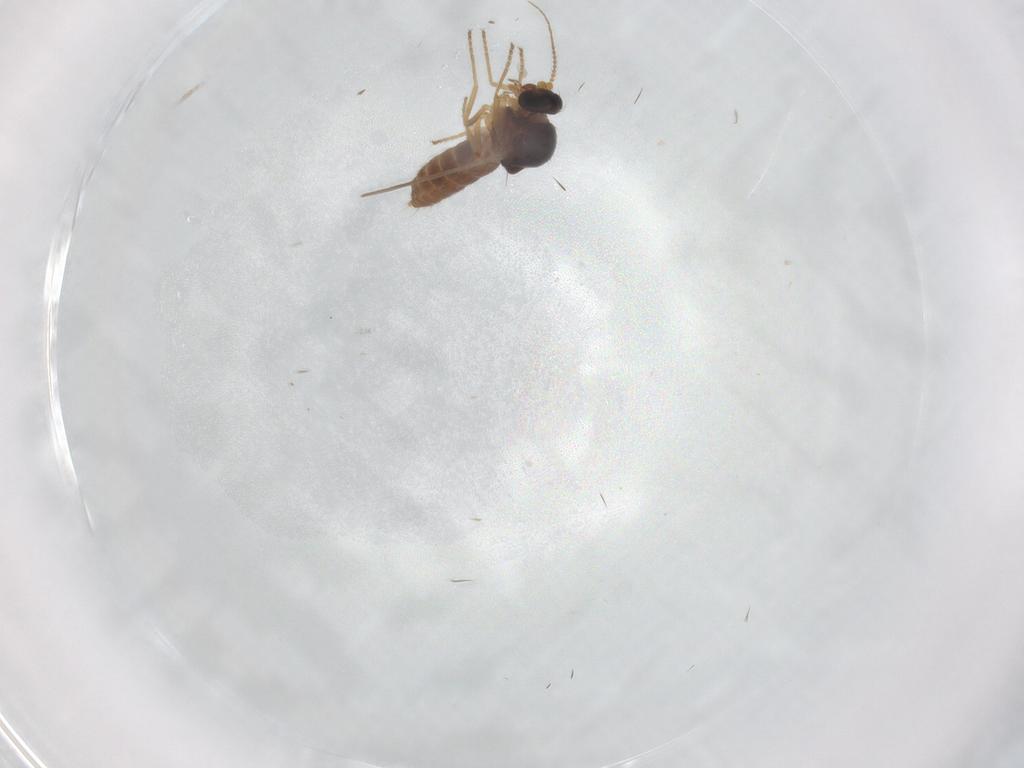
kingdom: Animalia
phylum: Arthropoda
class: Insecta
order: Diptera
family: Ceratopogonidae
